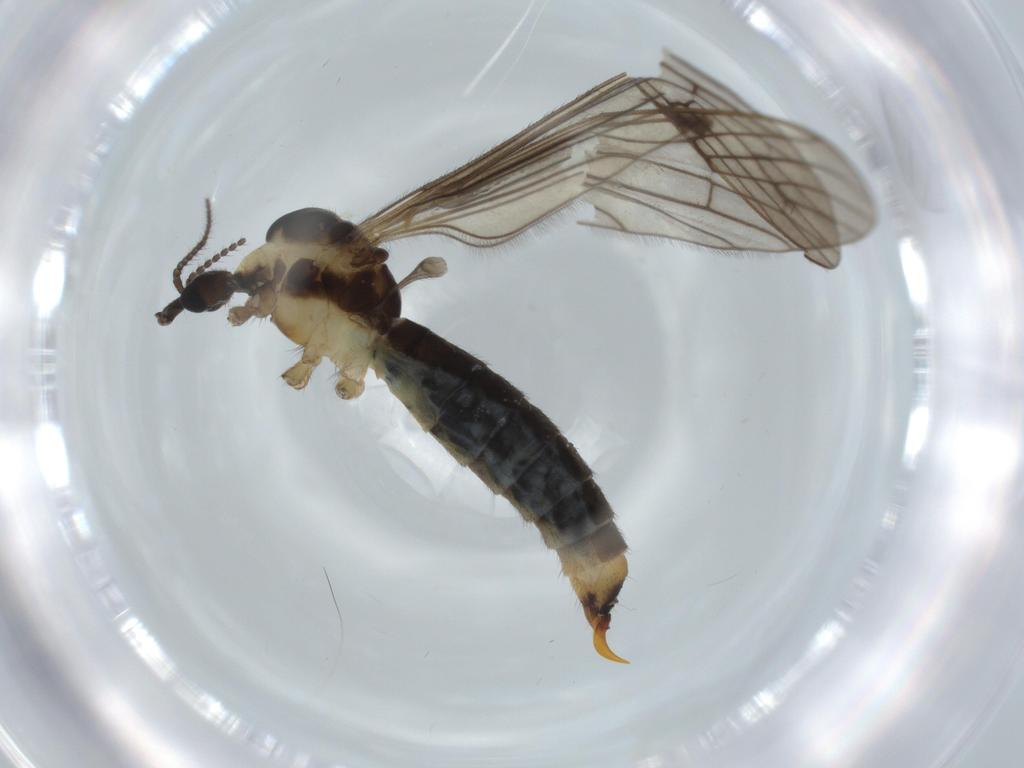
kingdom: Animalia
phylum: Arthropoda
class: Insecta
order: Diptera
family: Limoniidae
